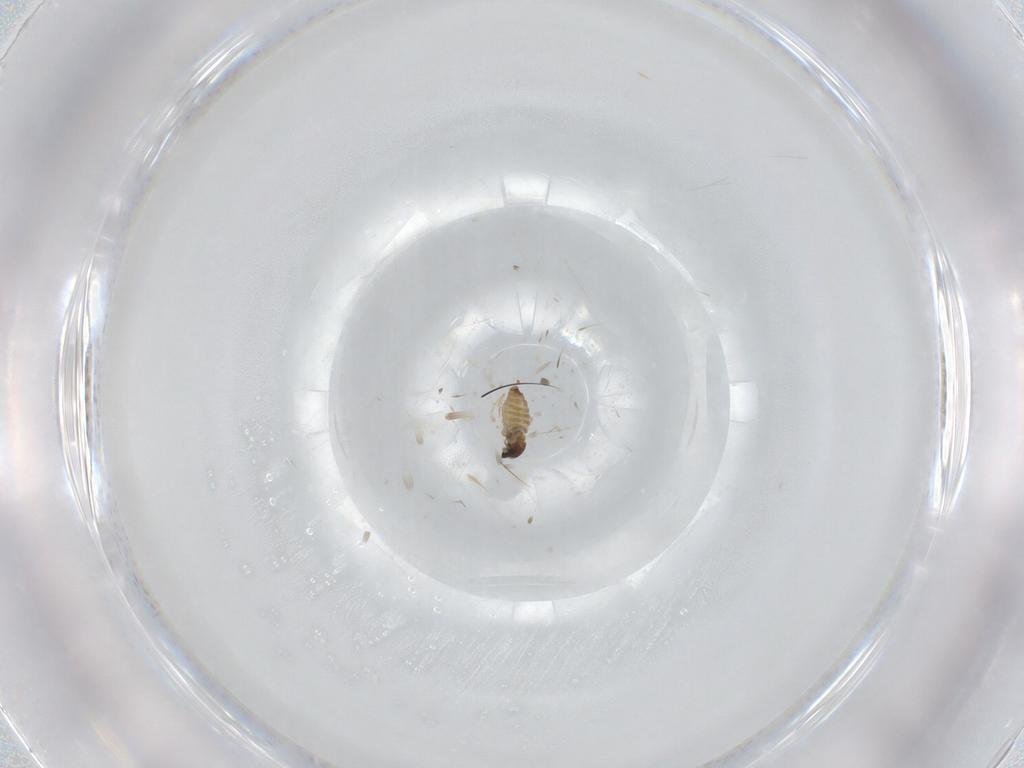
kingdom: Animalia
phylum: Arthropoda
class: Insecta
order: Diptera
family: Cecidomyiidae
